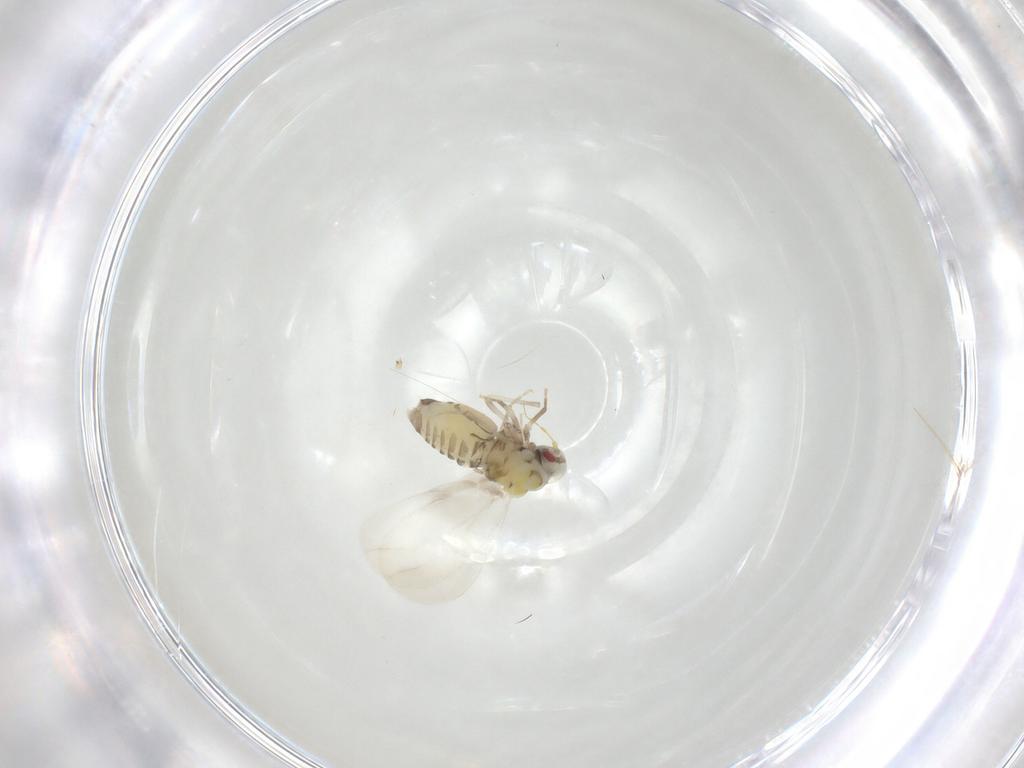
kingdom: Animalia
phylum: Arthropoda
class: Insecta
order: Hemiptera
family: Aleyrodidae
